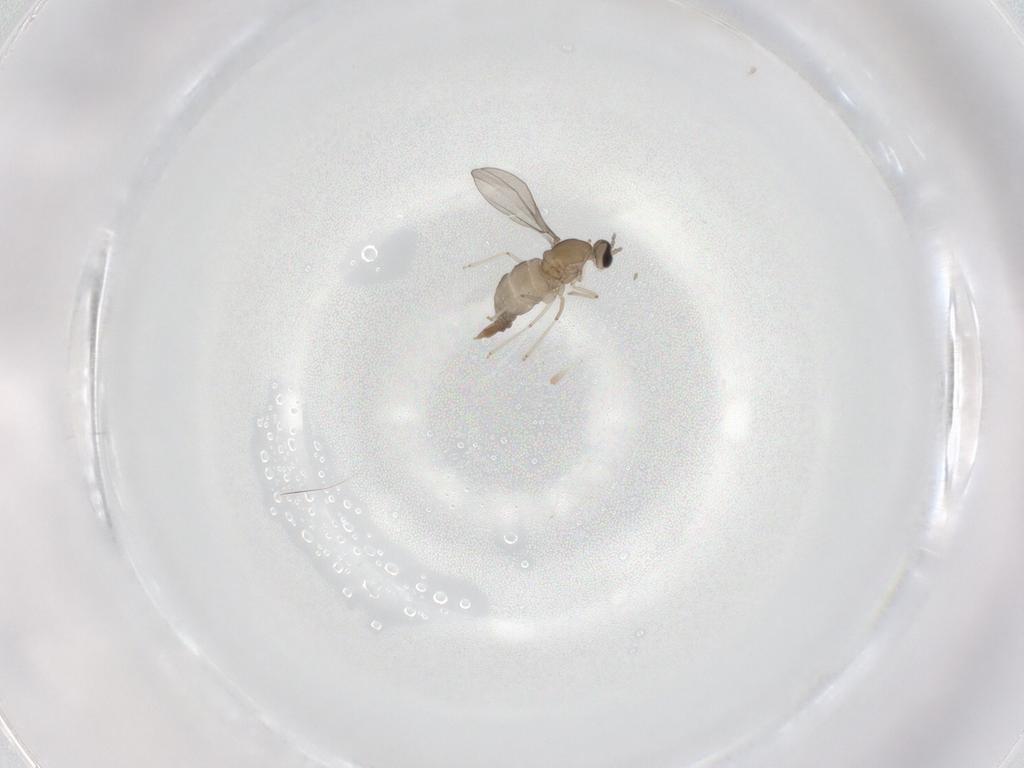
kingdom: Animalia
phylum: Arthropoda
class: Insecta
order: Diptera
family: Cecidomyiidae
